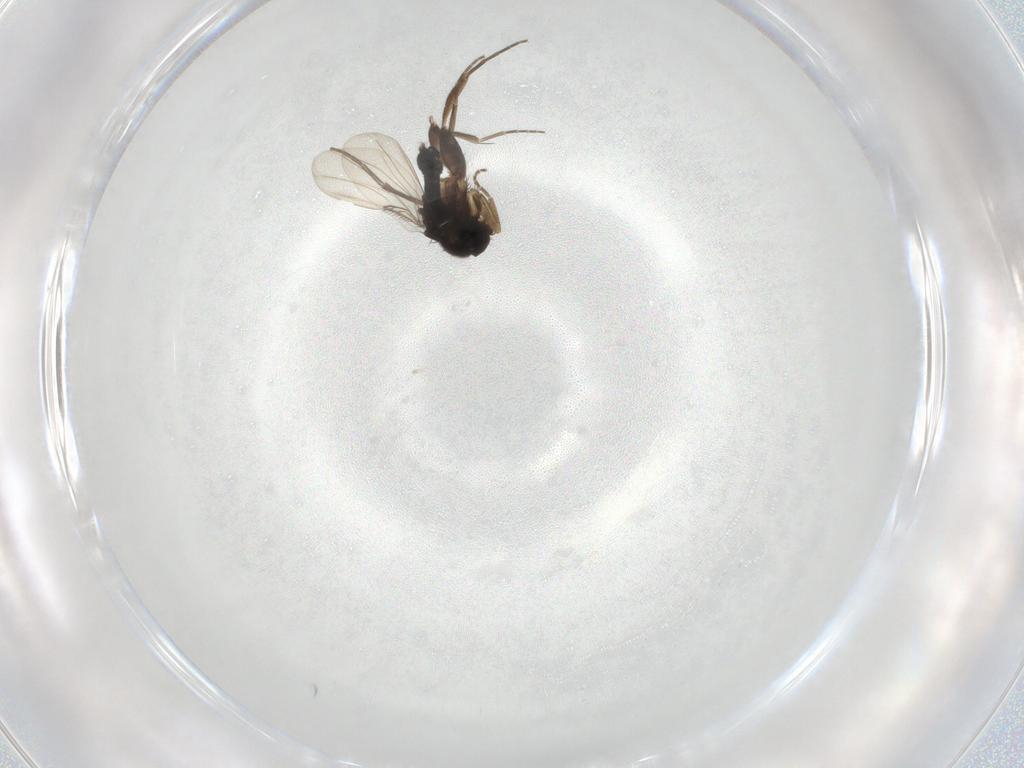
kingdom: Animalia
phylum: Arthropoda
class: Insecta
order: Diptera
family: Phoridae
